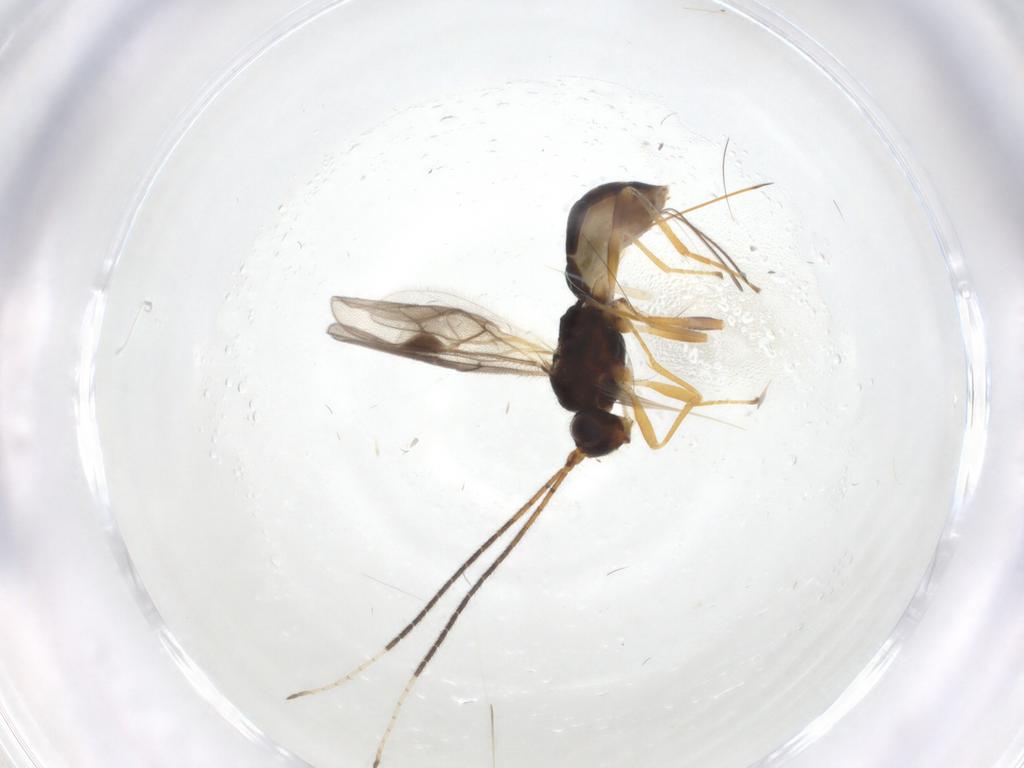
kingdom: Animalia
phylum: Arthropoda
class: Insecta
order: Hymenoptera
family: Braconidae
